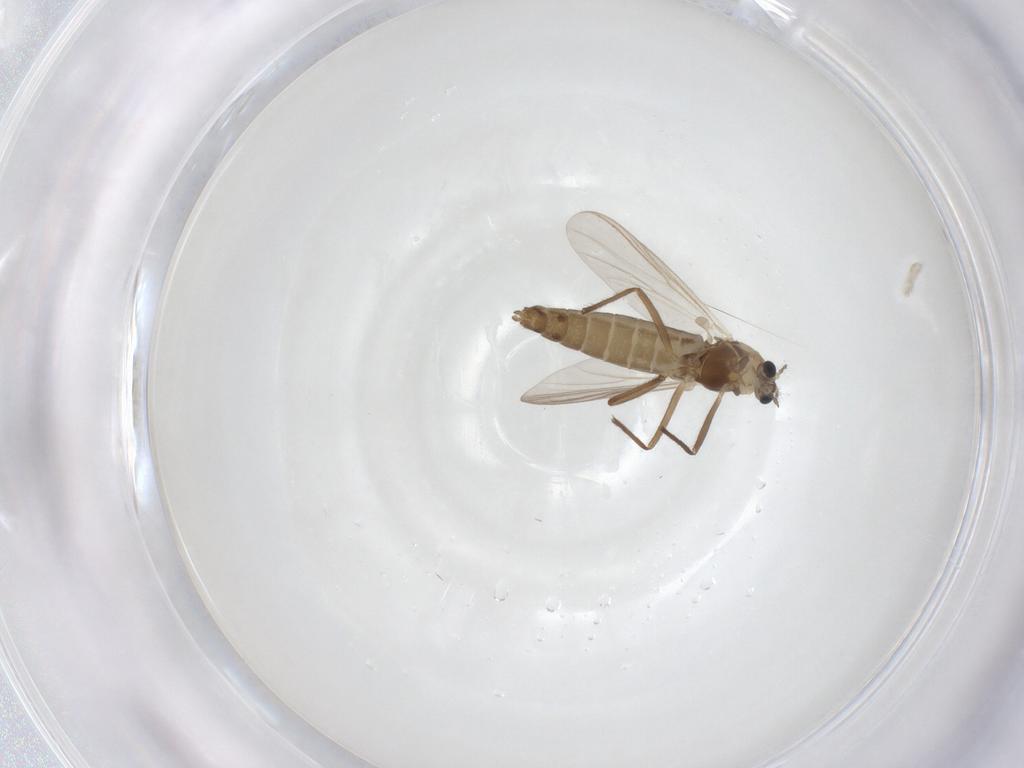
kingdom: Animalia
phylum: Arthropoda
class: Insecta
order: Diptera
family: Chironomidae
